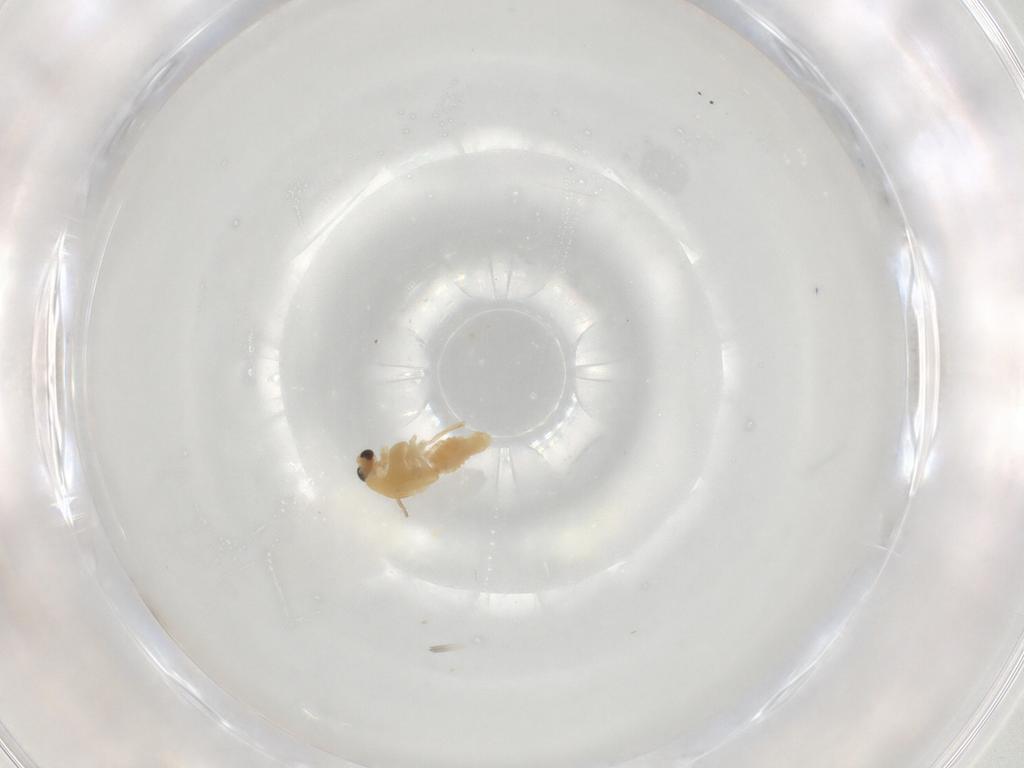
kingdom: Animalia
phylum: Arthropoda
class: Insecta
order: Diptera
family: Chironomidae
